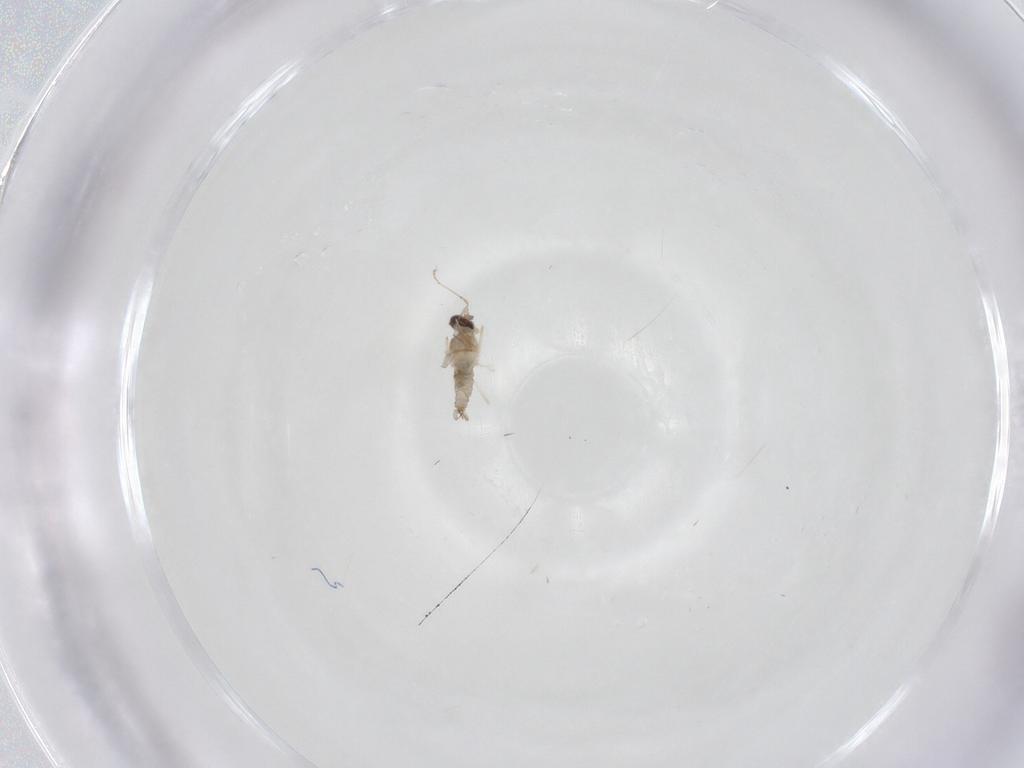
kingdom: Animalia
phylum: Arthropoda
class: Insecta
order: Diptera
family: Cecidomyiidae
